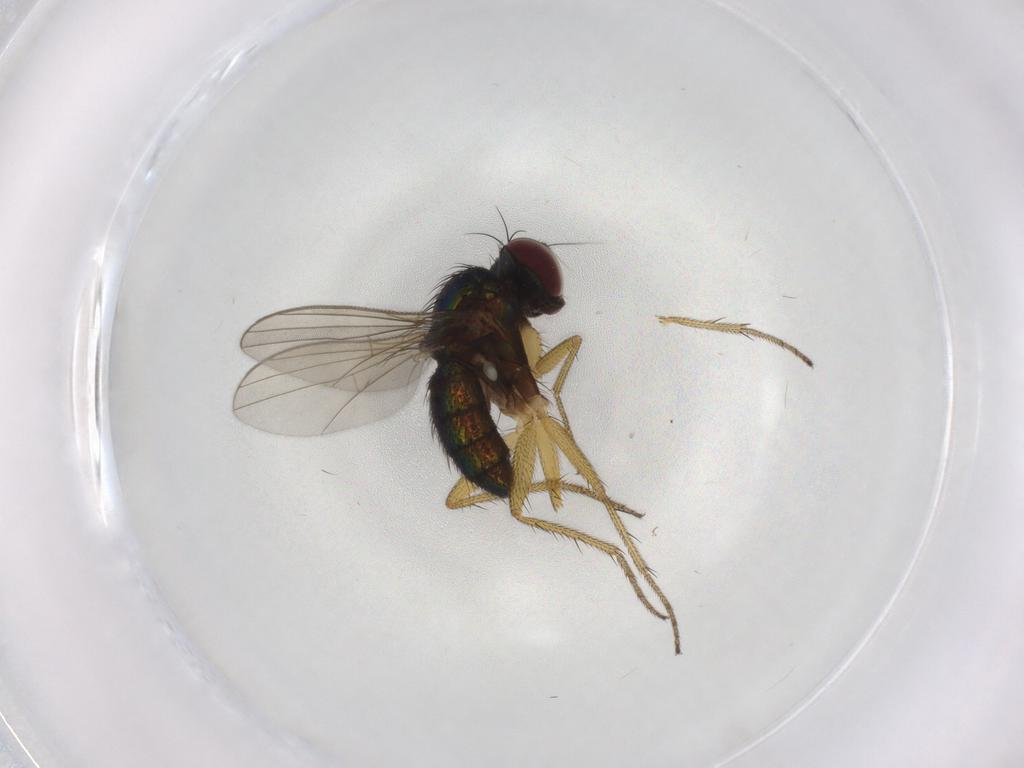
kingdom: Animalia
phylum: Arthropoda
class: Insecta
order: Diptera
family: Dolichopodidae
